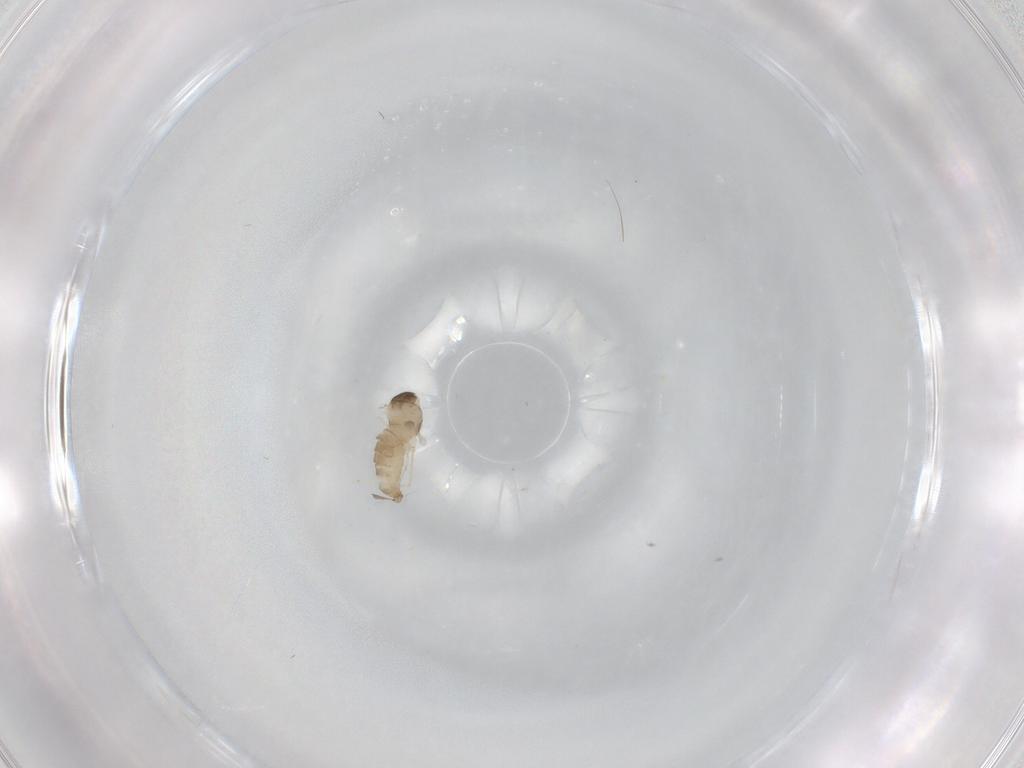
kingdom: Animalia
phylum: Arthropoda
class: Insecta
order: Diptera
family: Cecidomyiidae
